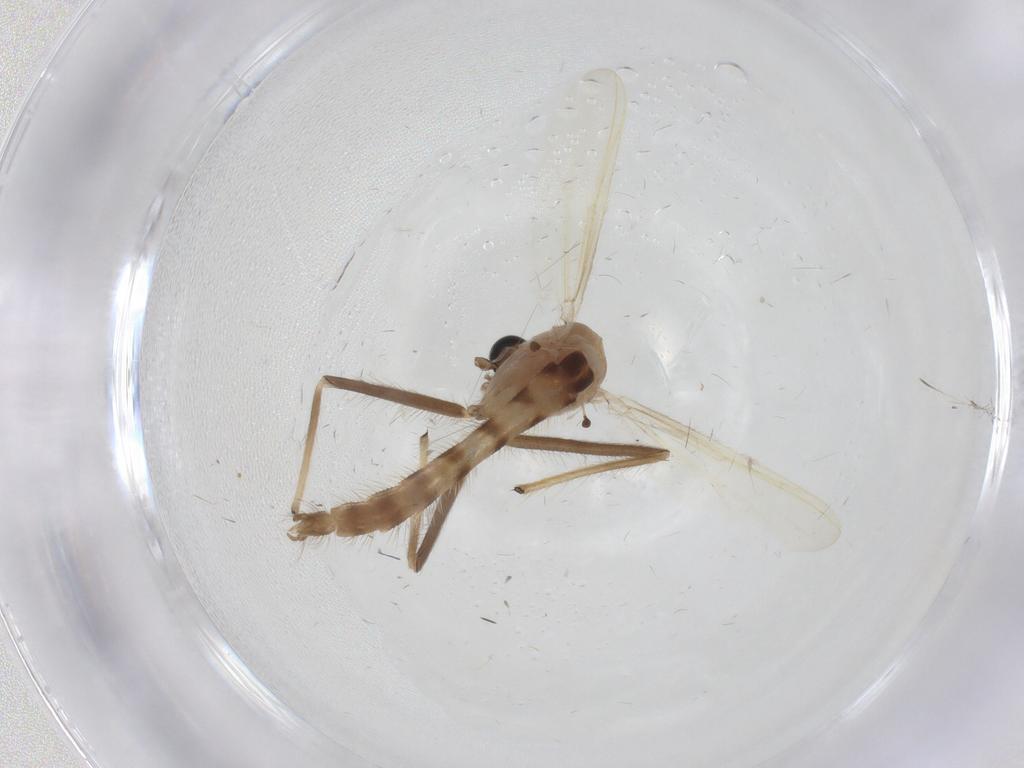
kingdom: Animalia
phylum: Arthropoda
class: Insecta
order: Diptera
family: Chironomidae
